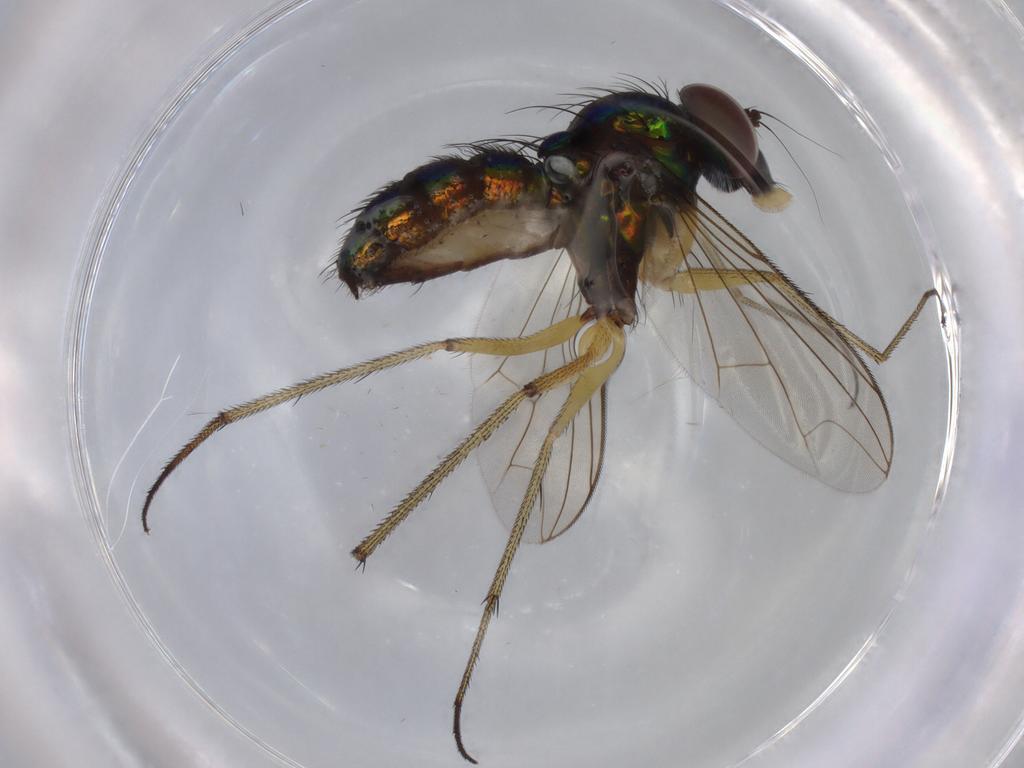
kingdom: Animalia
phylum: Arthropoda
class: Insecta
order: Diptera
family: Dolichopodidae
